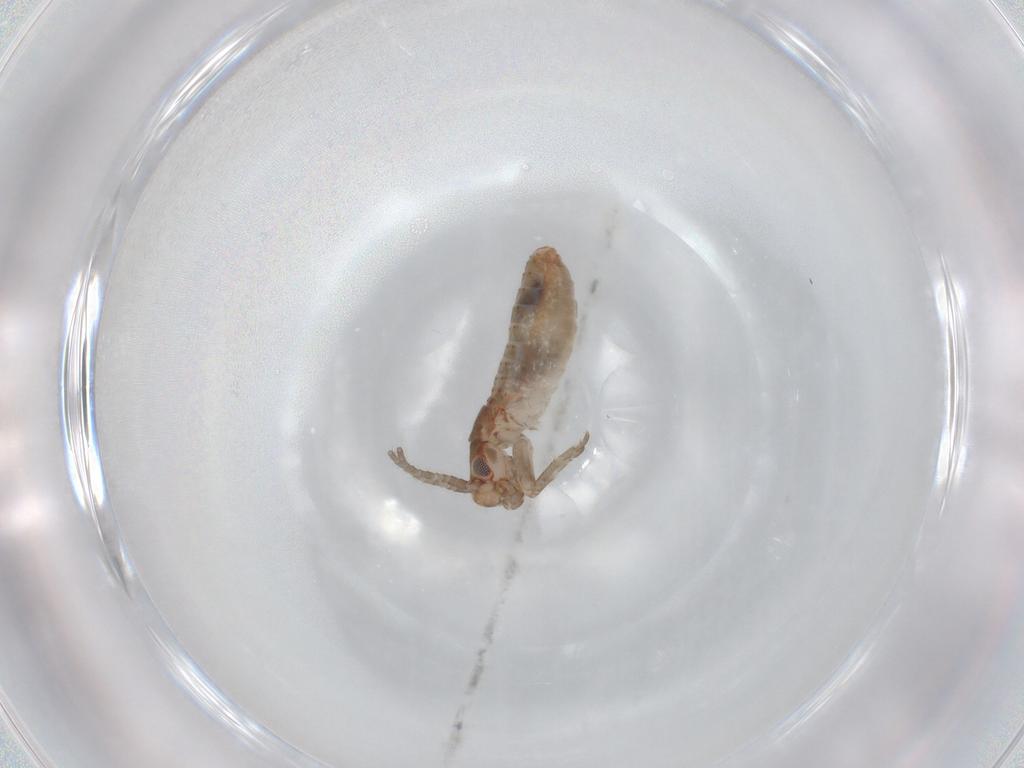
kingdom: Animalia
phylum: Arthropoda
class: Insecta
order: Orthoptera
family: Mogoplistidae
